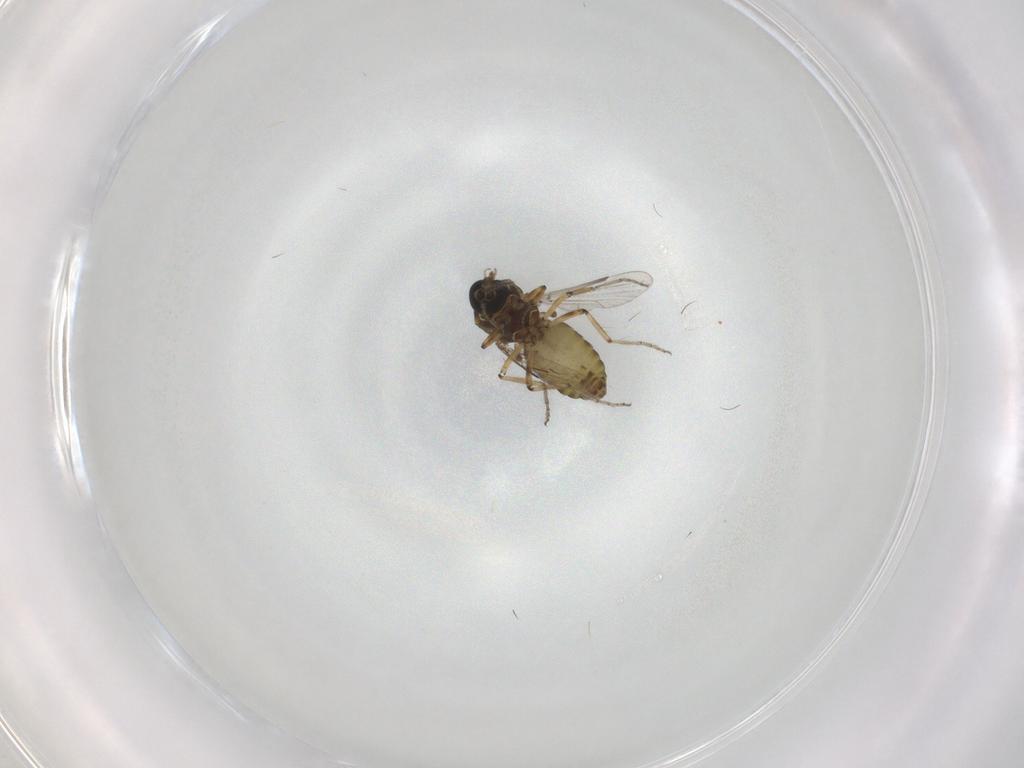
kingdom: Animalia
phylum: Arthropoda
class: Insecta
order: Diptera
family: Ceratopogonidae
